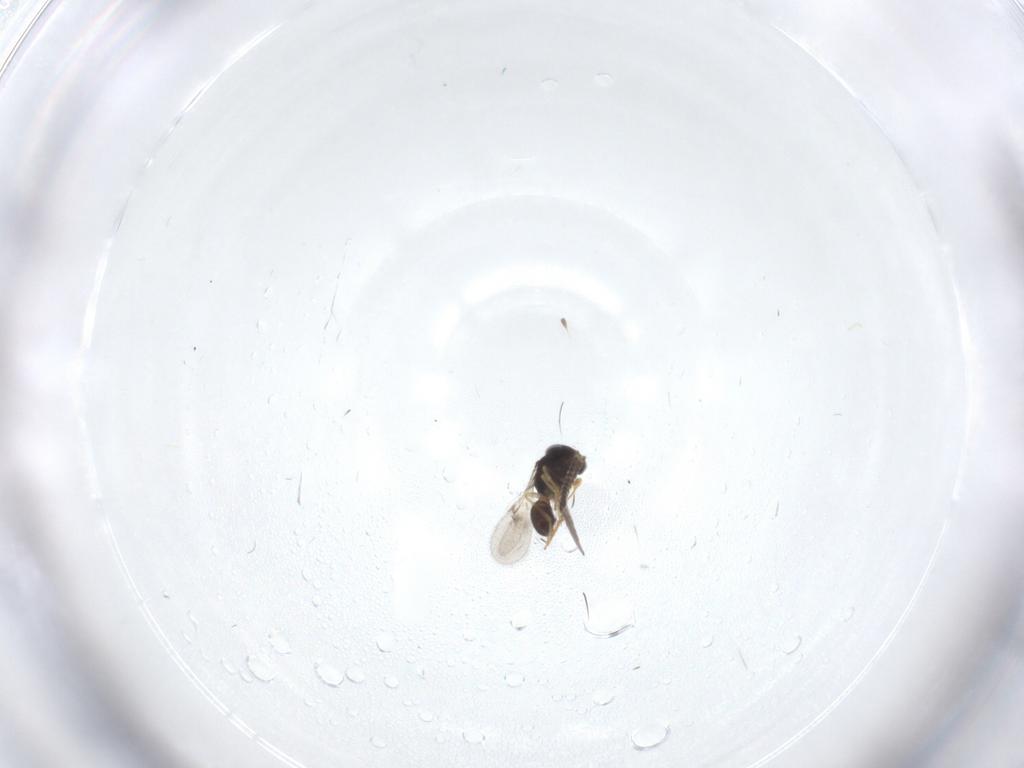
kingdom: Animalia
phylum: Arthropoda
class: Insecta
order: Hymenoptera
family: Scelionidae
